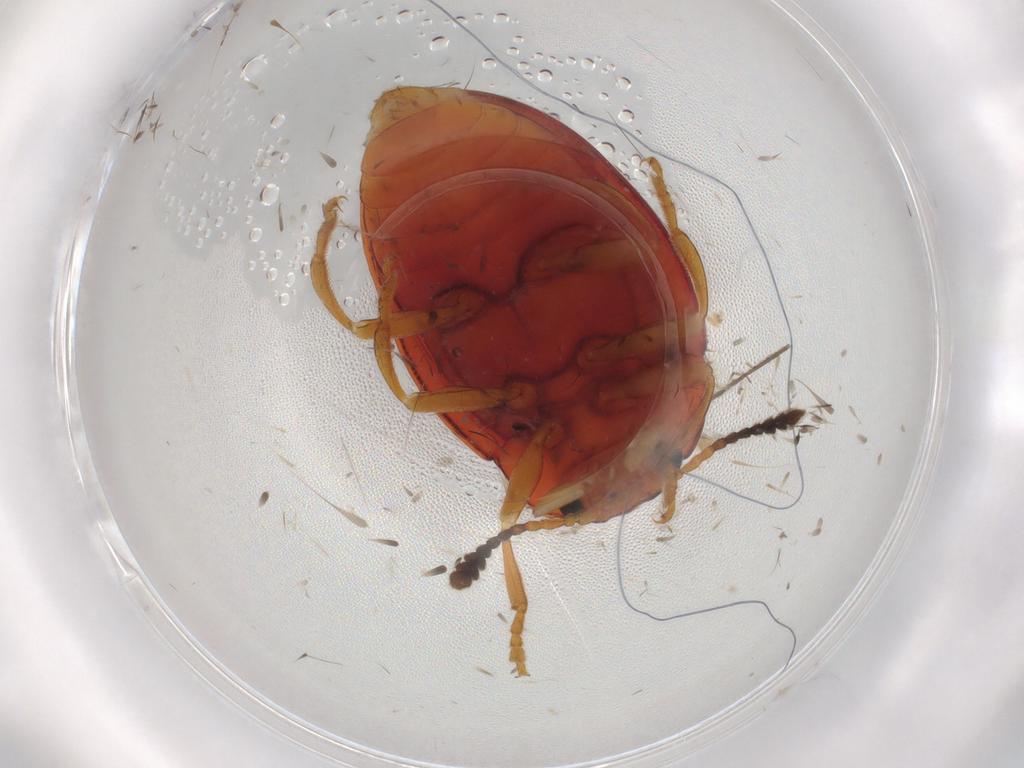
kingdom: Animalia
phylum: Arthropoda
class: Insecta
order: Coleoptera
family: Erotylidae
